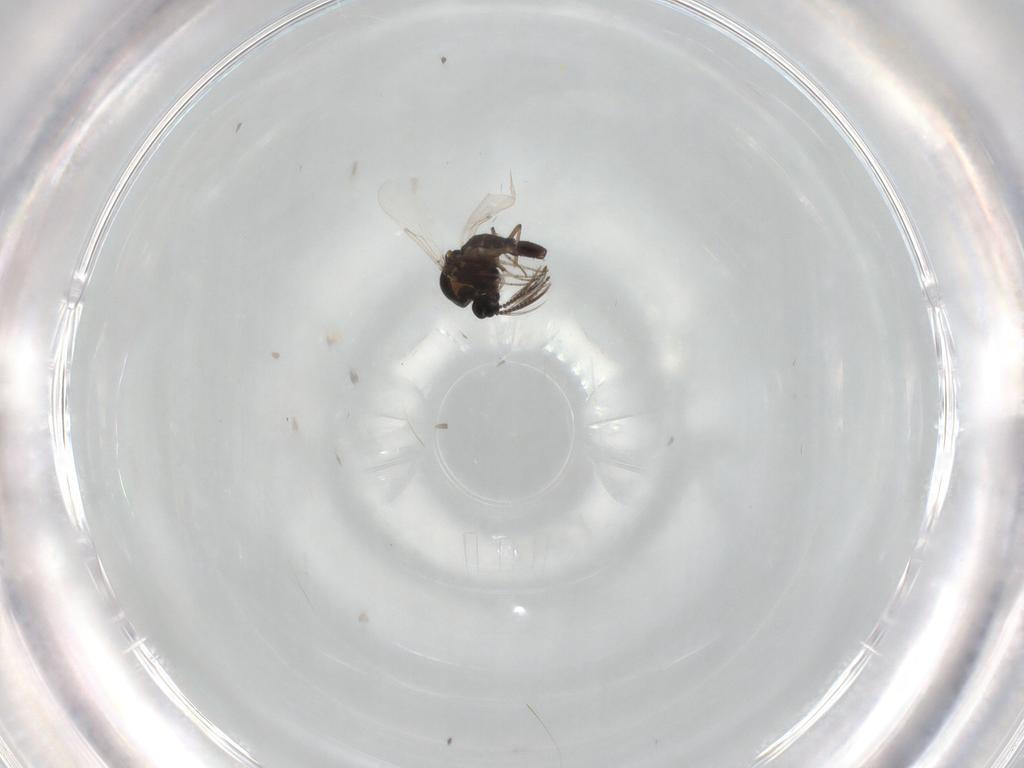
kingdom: Animalia
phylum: Arthropoda
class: Insecta
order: Diptera
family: Ceratopogonidae
